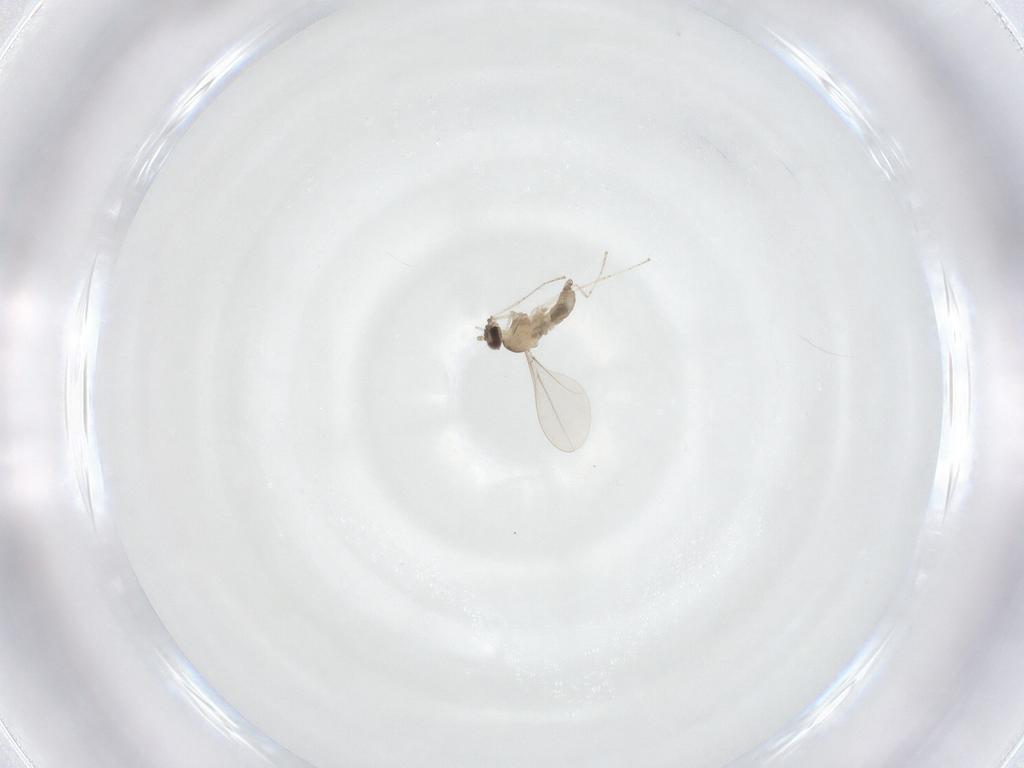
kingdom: Animalia
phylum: Arthropoda
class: Insecta
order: Diptera
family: Cecidomyiidae
